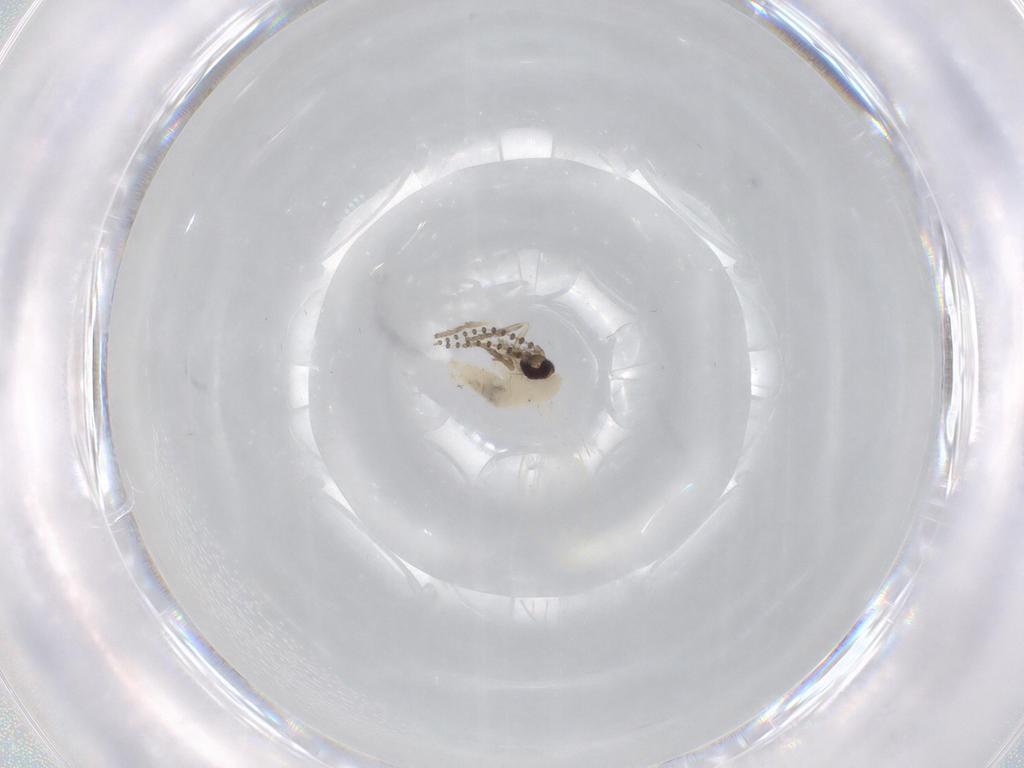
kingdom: Animalia
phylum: Arthropoda
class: Insecta
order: Diptera
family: Psychodidae
